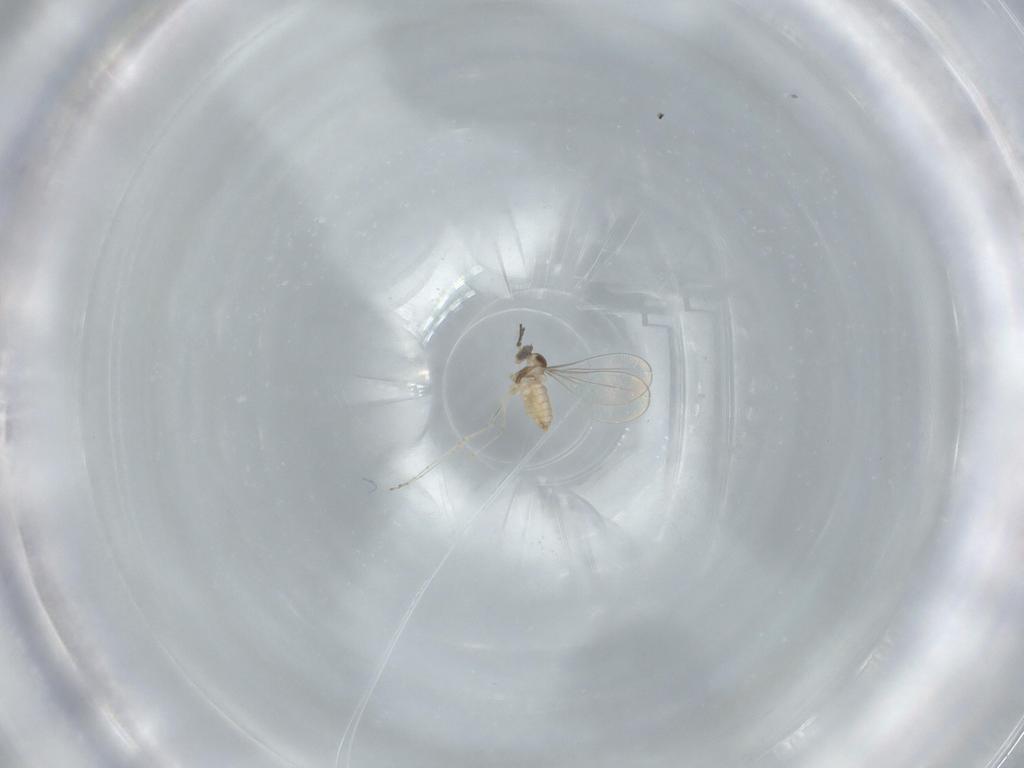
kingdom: Animalia
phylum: Arthropoda
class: Insecta
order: Diptera
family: Cecidomyiidae
